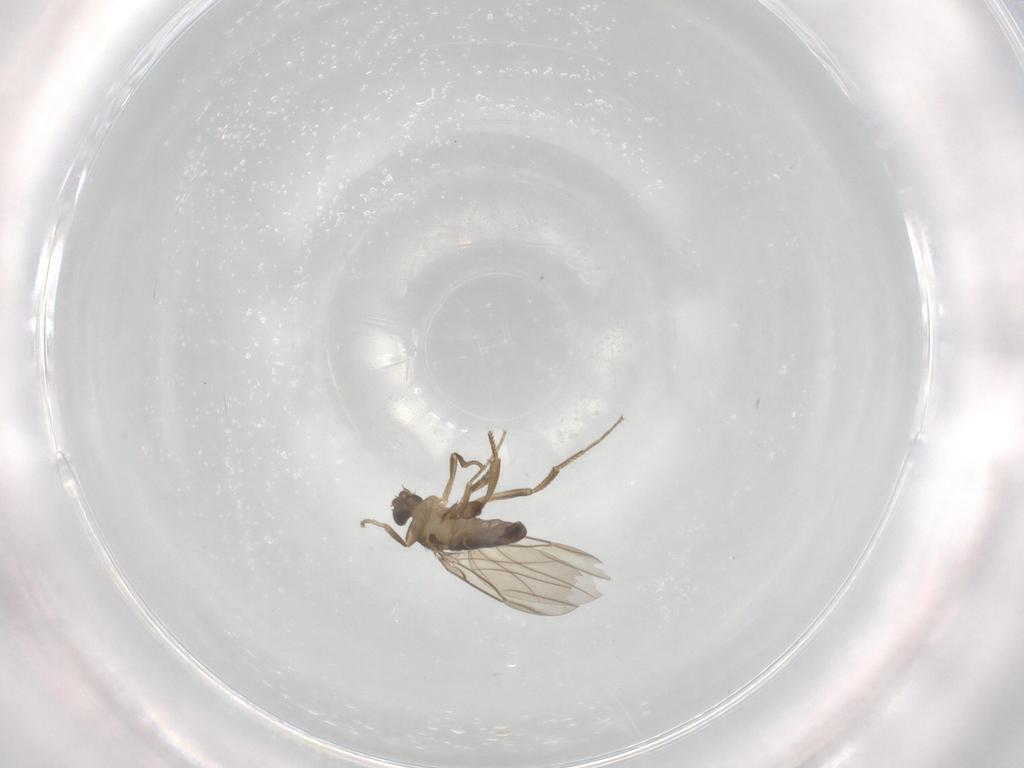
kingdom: Animalia
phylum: Arthropoda
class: Insecta
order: Diptera
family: Phoridae
